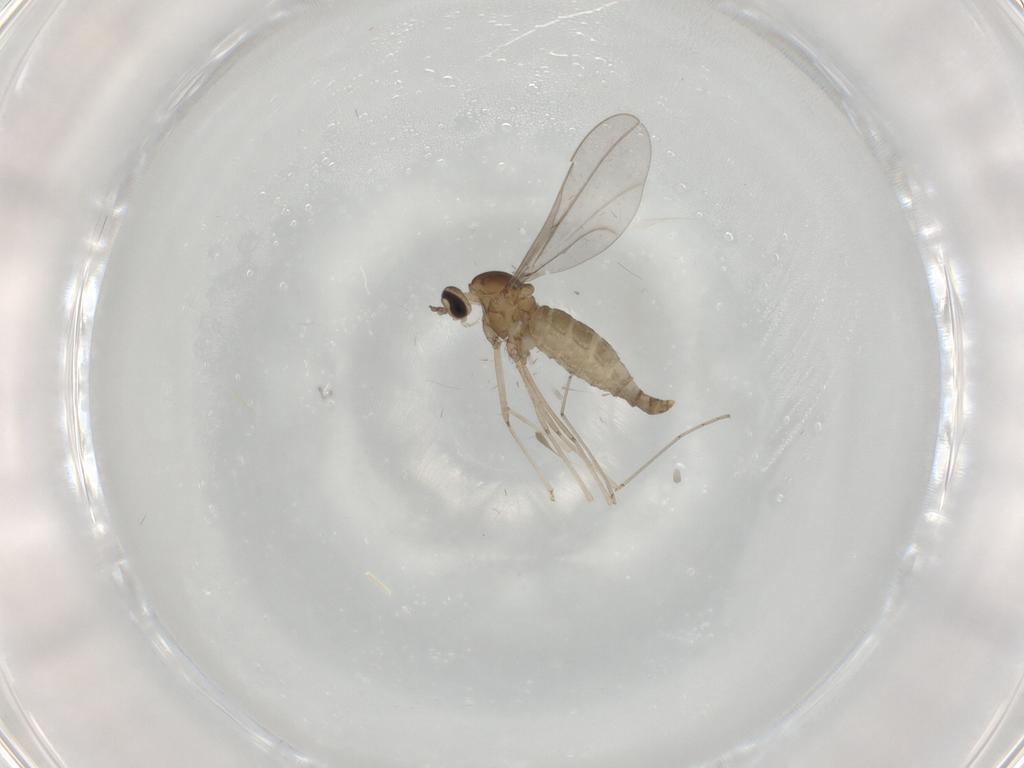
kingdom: Animalia
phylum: Arthropoda
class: Insecta
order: Diptera
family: Cecidomyiidae
